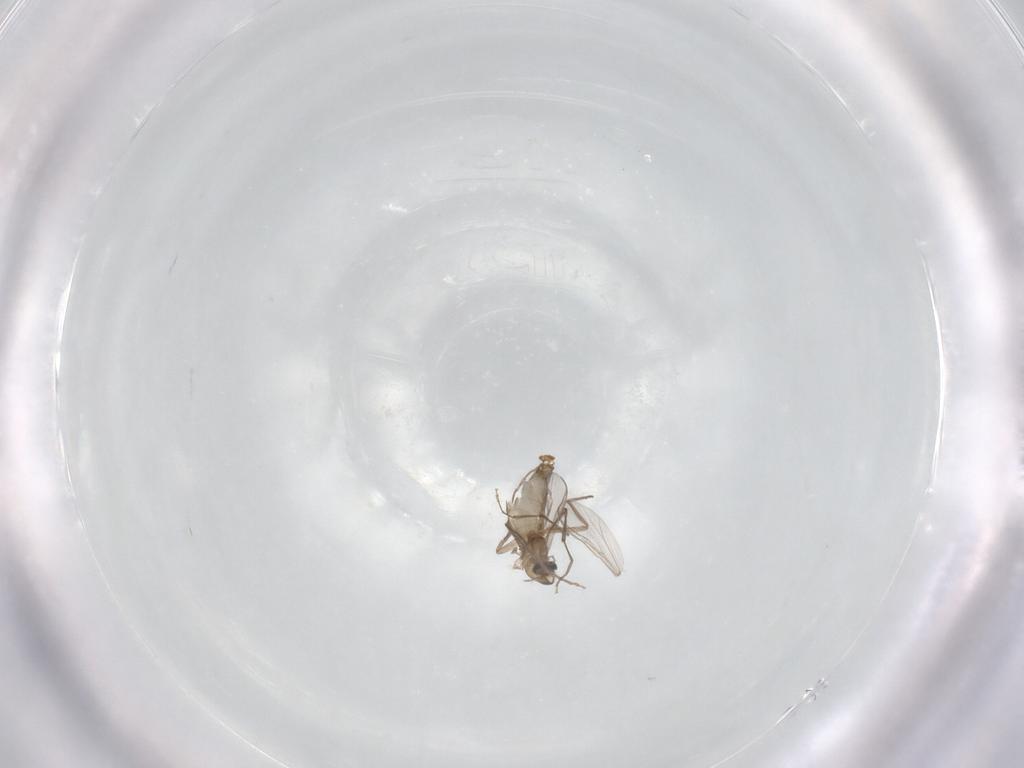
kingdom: Animalia
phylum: Arthropoda
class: Insecta
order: Diptera
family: Chironomidae
